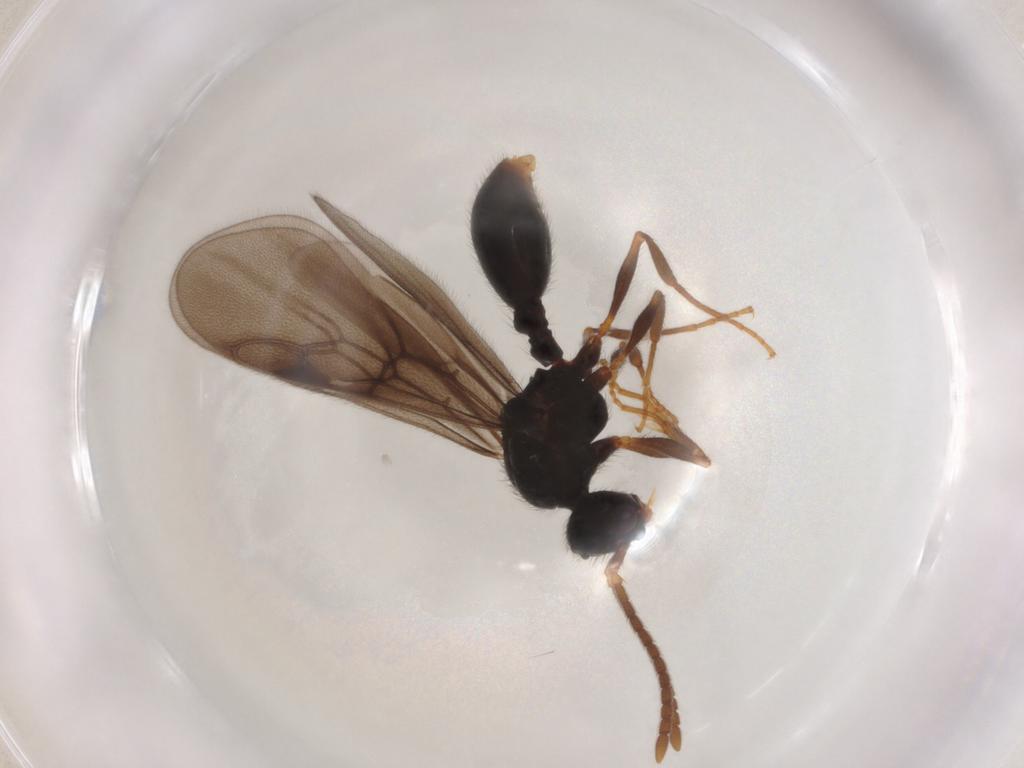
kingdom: Animalia
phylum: Arthropoda
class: Insecta
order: Hymenoptera
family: Formicidae
